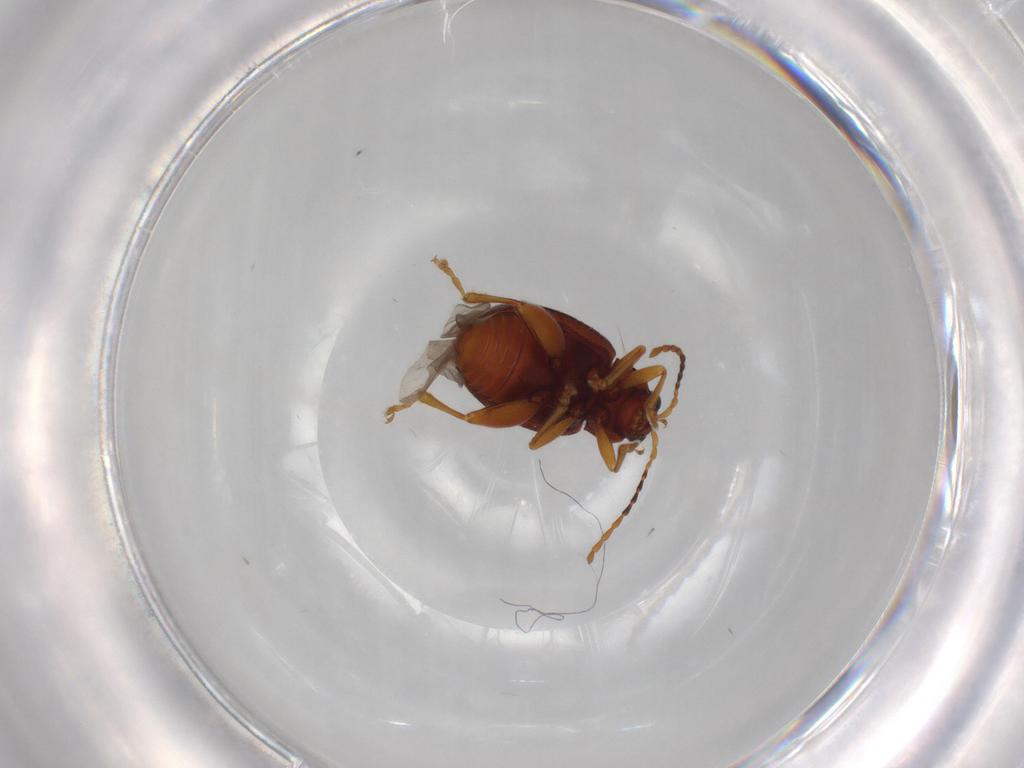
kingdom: Animalia
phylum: Arthropoda
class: Insecta
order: Coleoptera
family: Chrysomelidae
